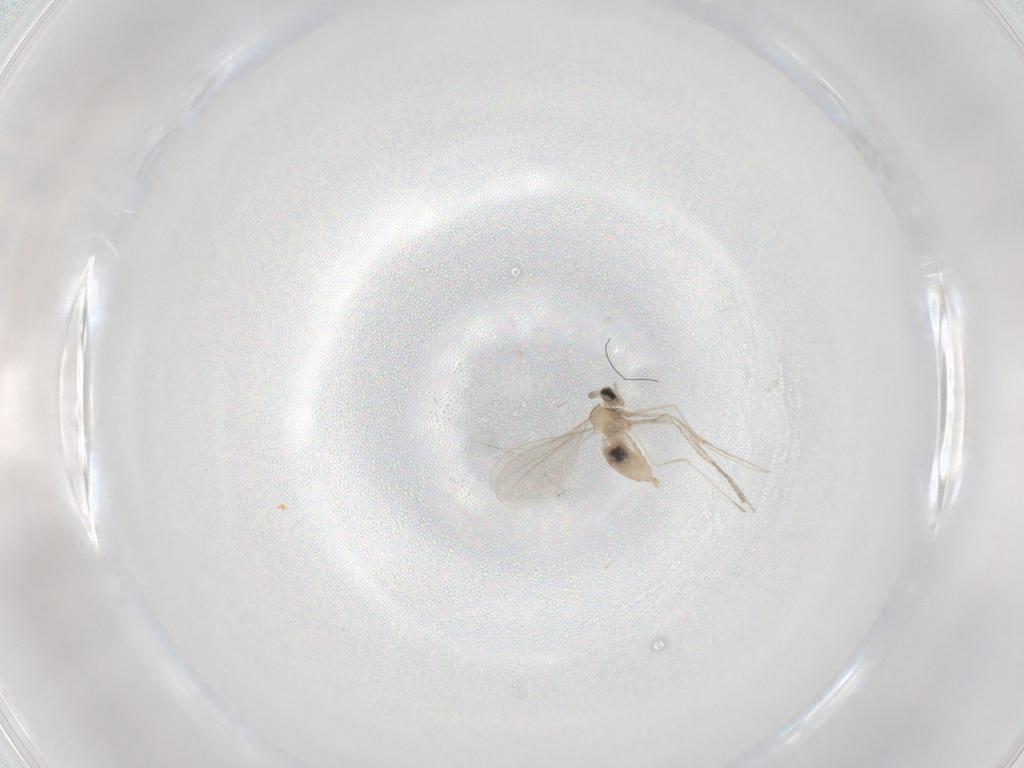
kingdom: Animalia
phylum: Arthropoda
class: Insecta
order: Diptera
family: Cecidomyiidae
